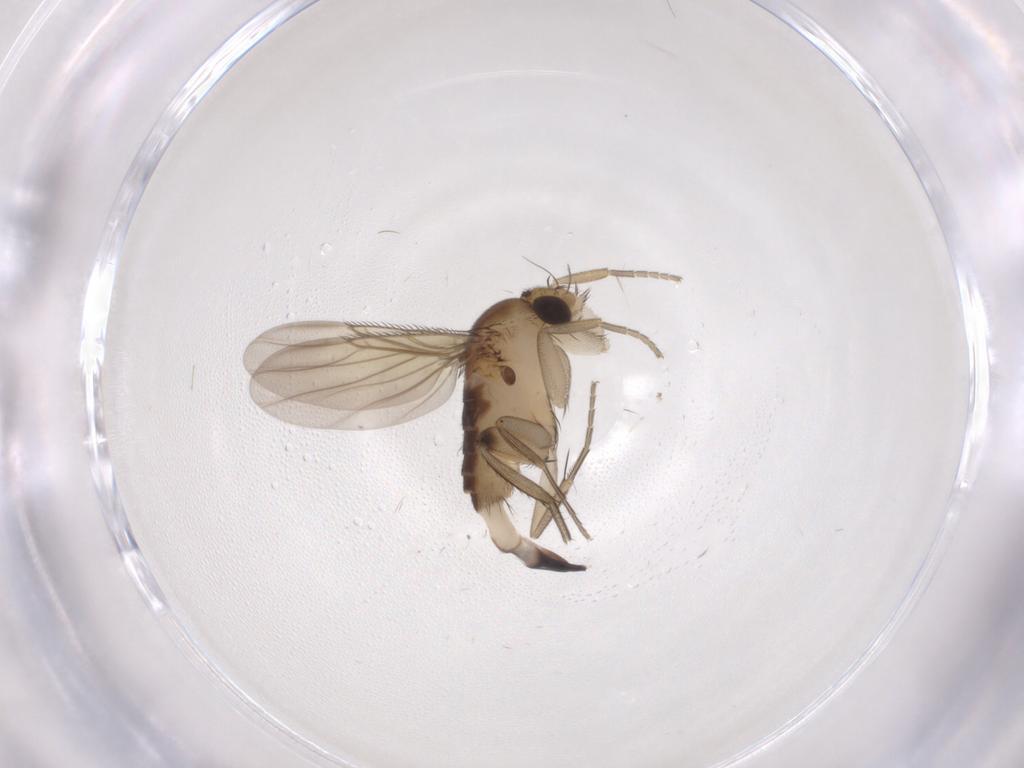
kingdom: Animalia
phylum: Arthropoda
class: Insecta
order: Diptera
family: Phoridae
